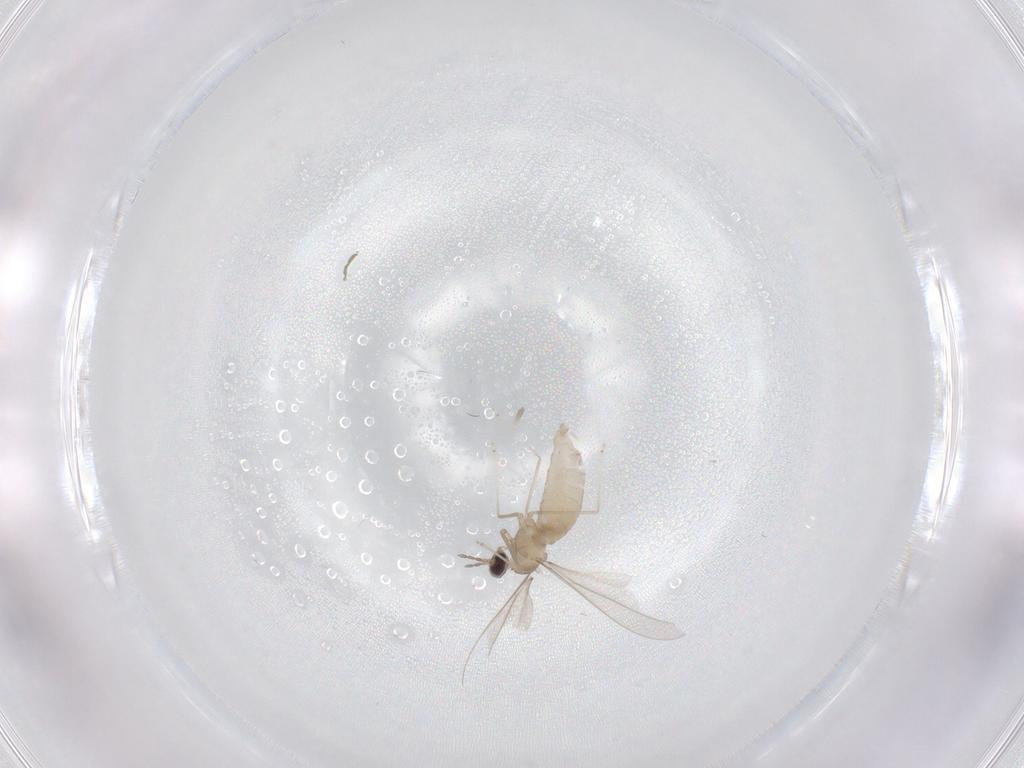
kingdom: Animalia
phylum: Arthropoda
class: Insecta
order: Diptera
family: Cecidomyiidae
